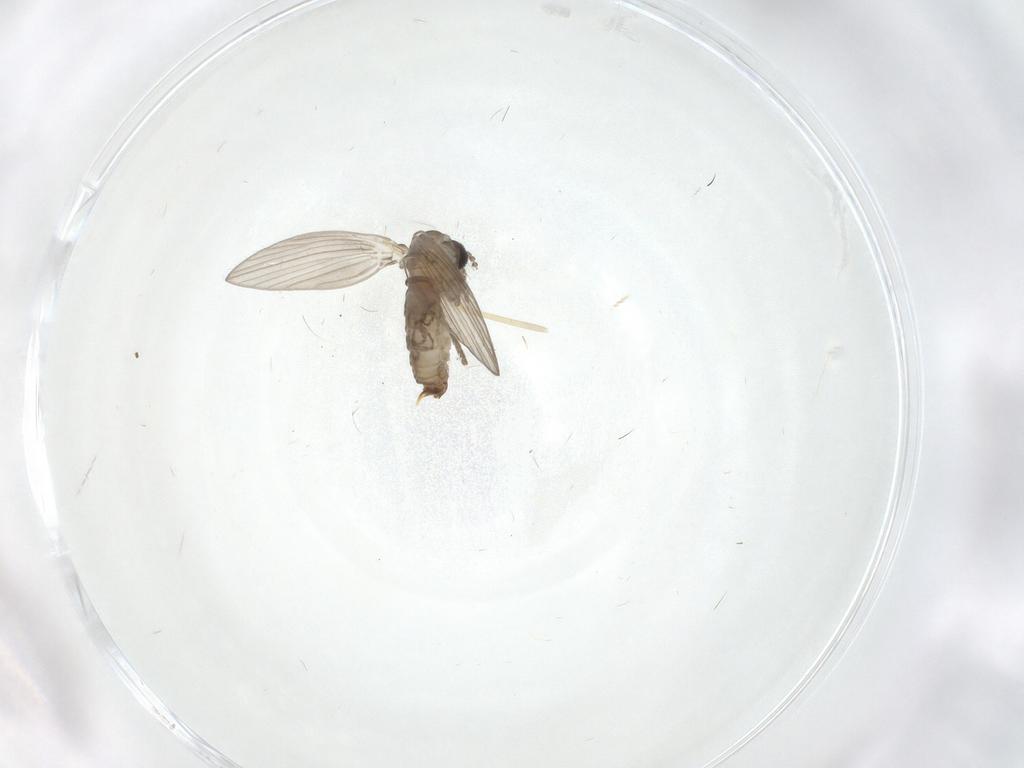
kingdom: Animalia
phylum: Arthropoda
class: Insecta
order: Diptera
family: Psychodidae
